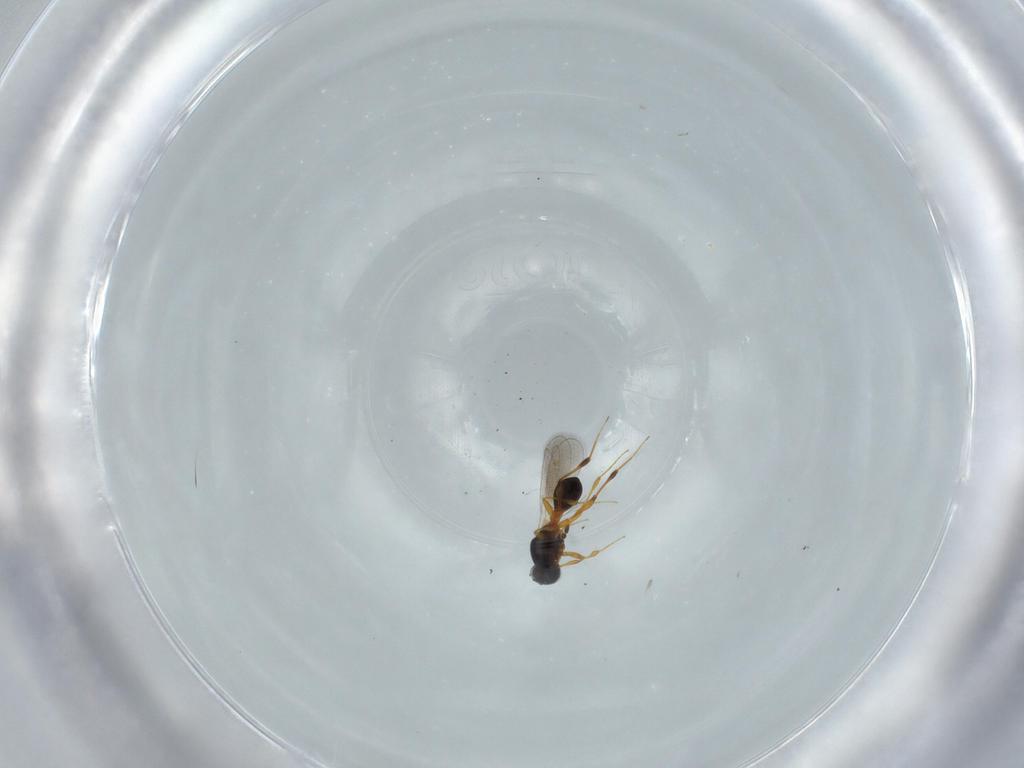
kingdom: Animalia
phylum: Arthropoda
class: Insecta
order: Hymenoptera
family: Platygastridae
